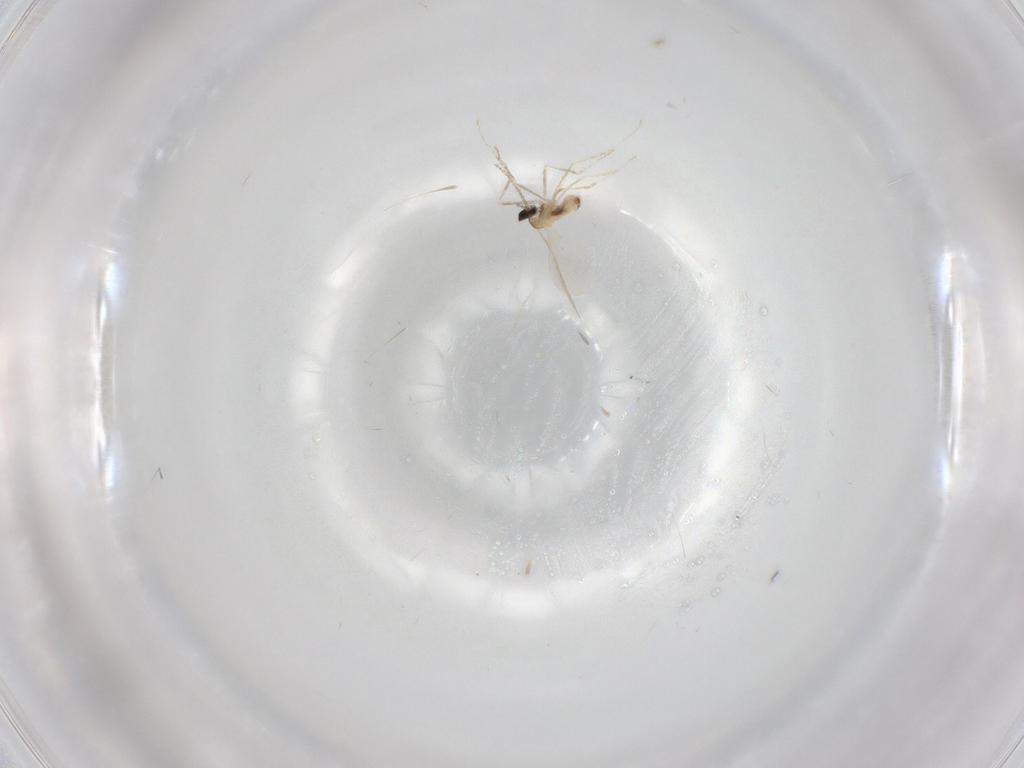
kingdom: Animalia
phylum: Arthropoda
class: Insecta
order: Diptera
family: Cecidomyiidae
